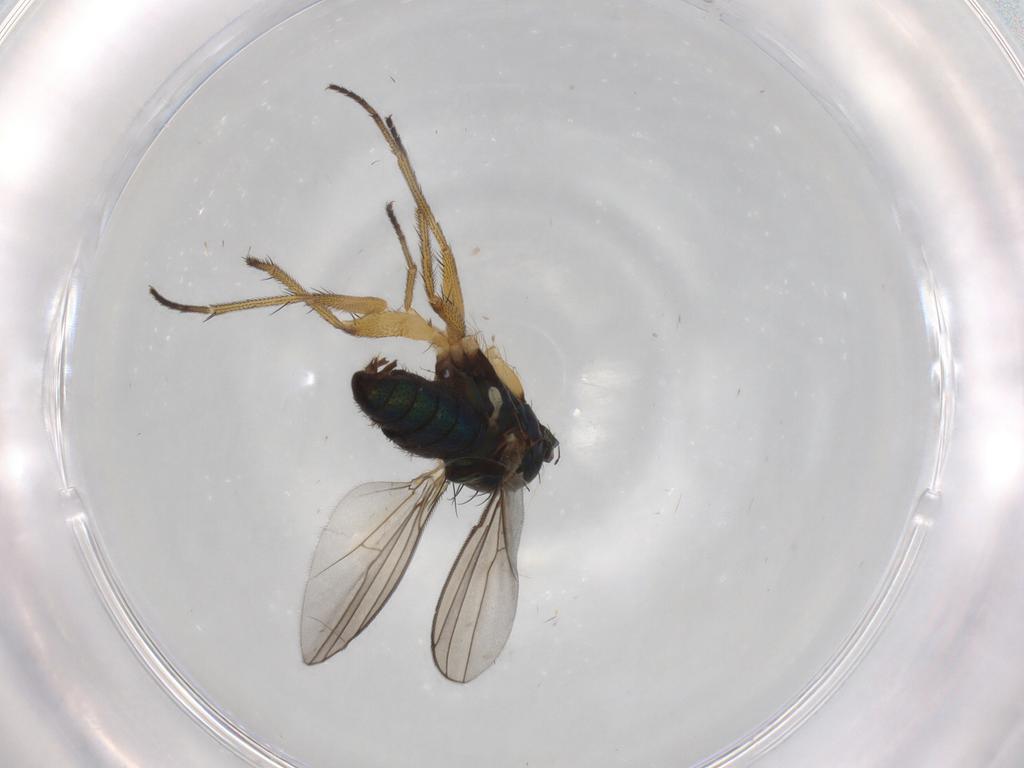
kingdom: Animalia
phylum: Arthropoda
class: Insecta
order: Diptera
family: Dolichopodidae
